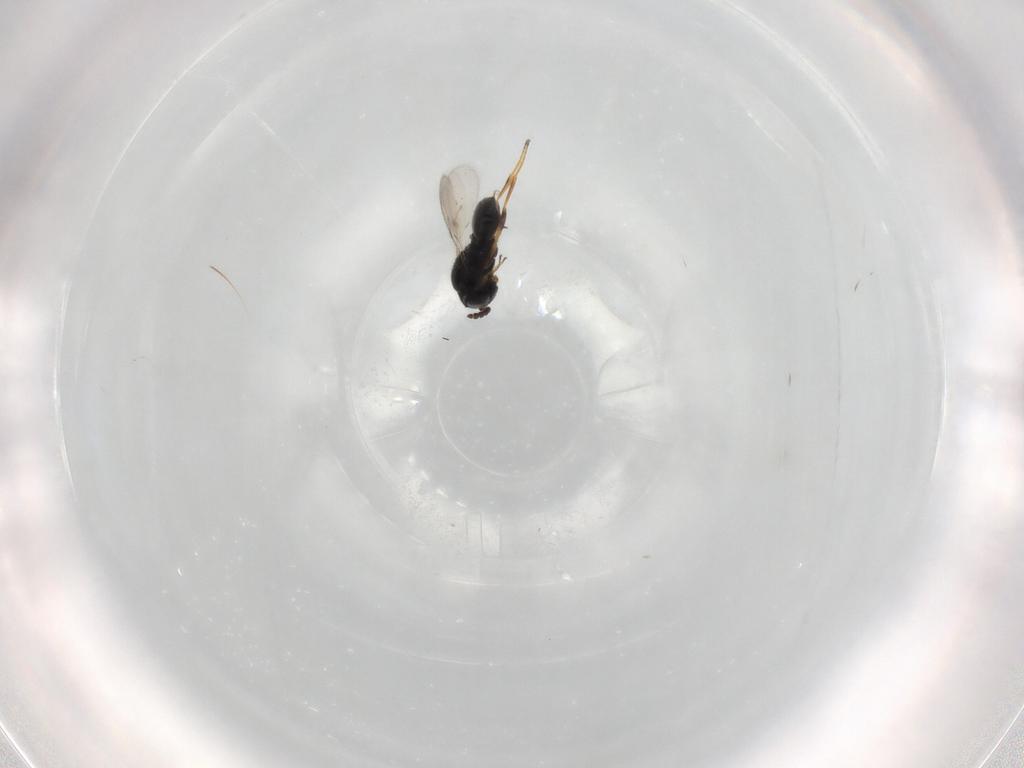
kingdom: Animalia
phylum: Arthropoda
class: Insecta
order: Hymenoptera
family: Scelionidae
